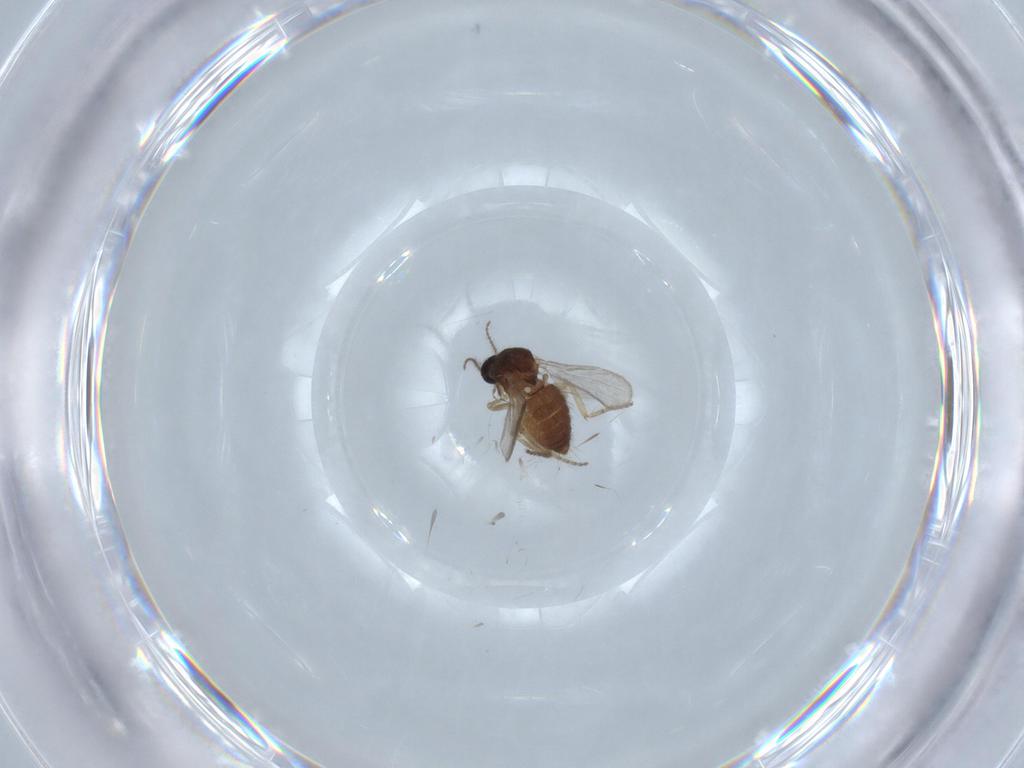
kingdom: Animalia
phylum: Arthropoda
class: Insecta
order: Diptera
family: Ceratopogonidae
